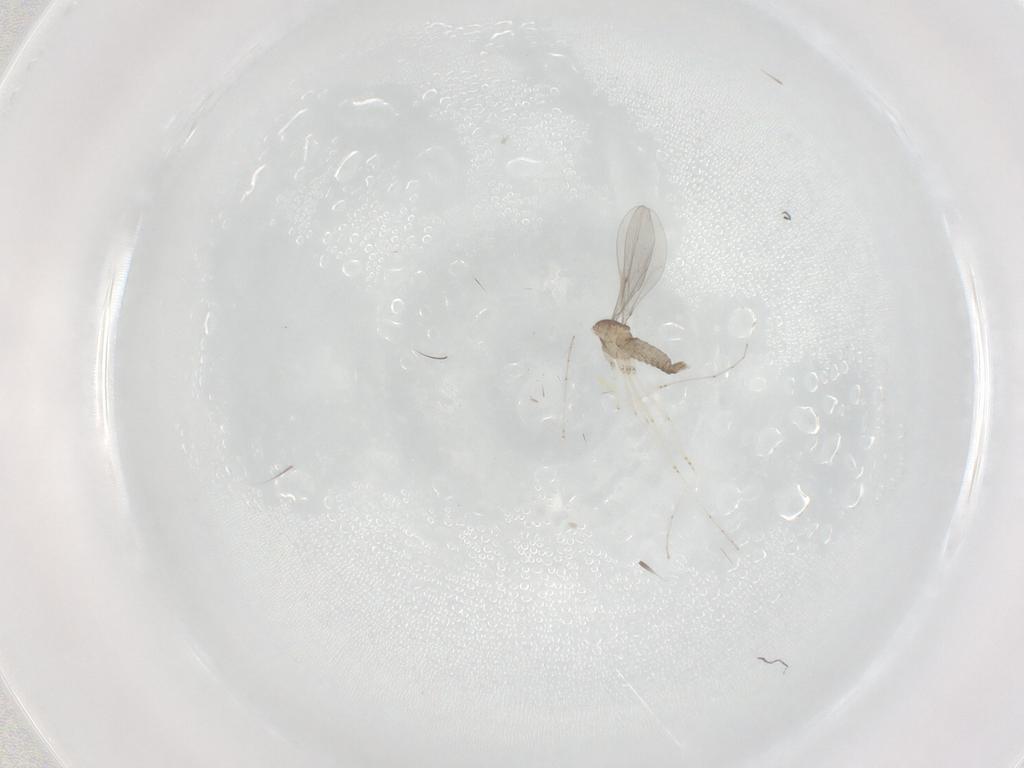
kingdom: Animalia
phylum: Arthropoda
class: Insecta
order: Diptera
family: Cecidomyiidae
